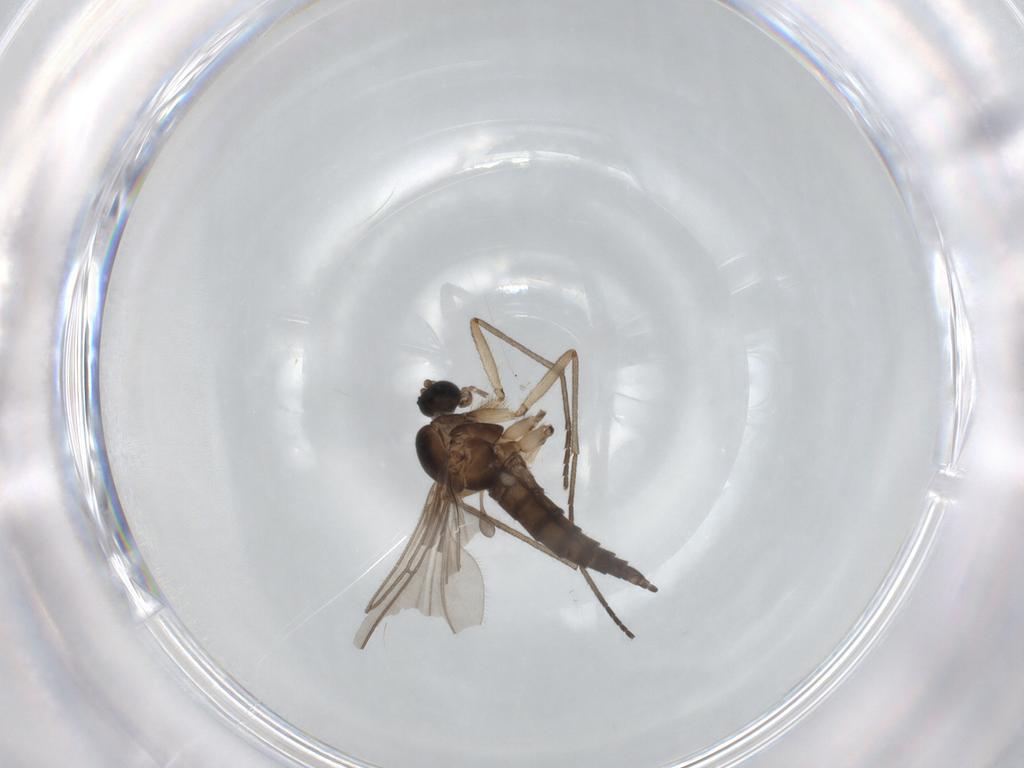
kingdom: Animalia
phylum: Arthropoda
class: Insecta
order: Diptera
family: Sciaridae
